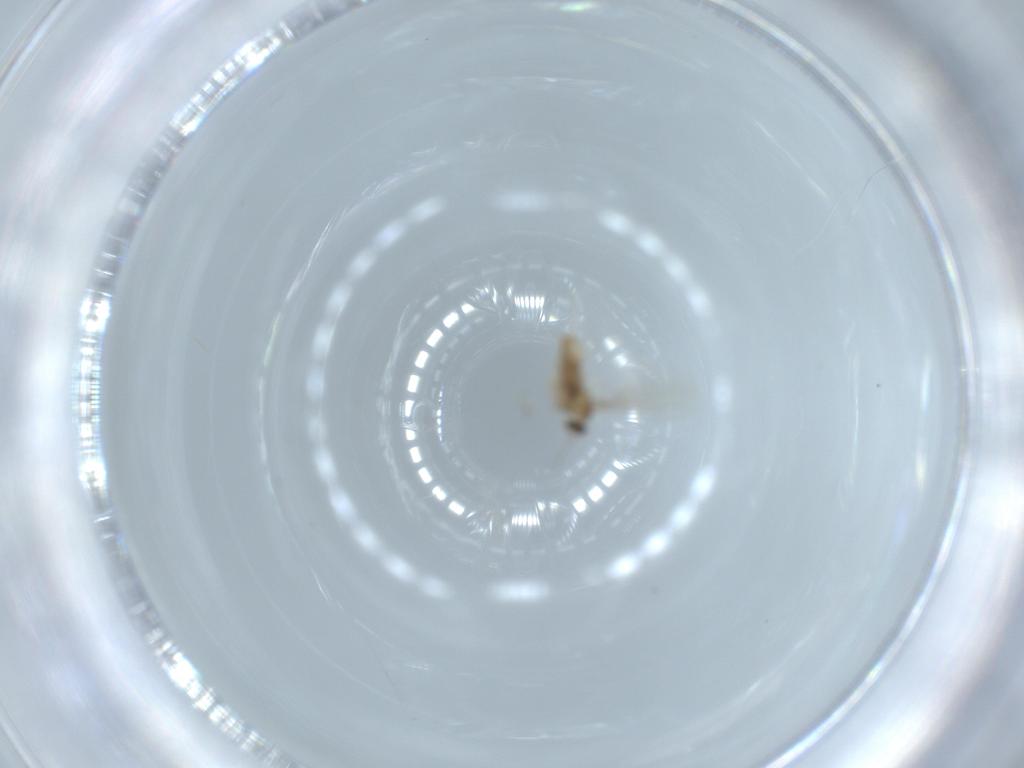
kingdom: Animalia
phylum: Arthropoda
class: Insecta
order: Diptera
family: Cecidomyiidae
